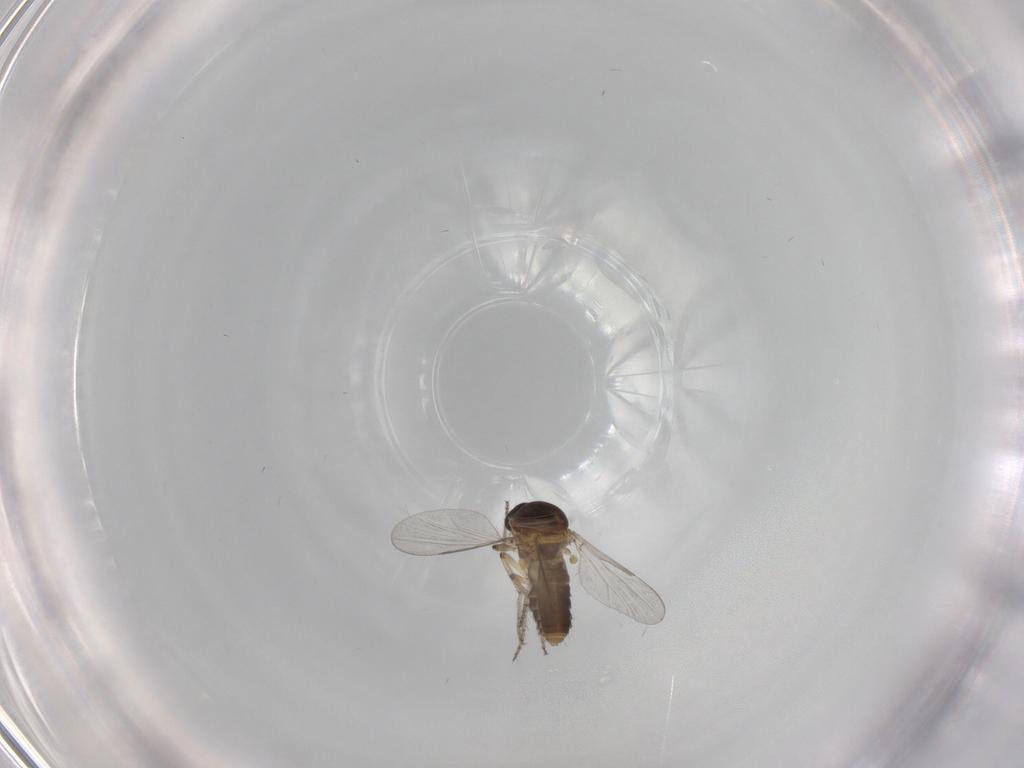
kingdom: Animalia
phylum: Arthropoda
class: Insecta
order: Diptera
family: Ceratopogonidae
